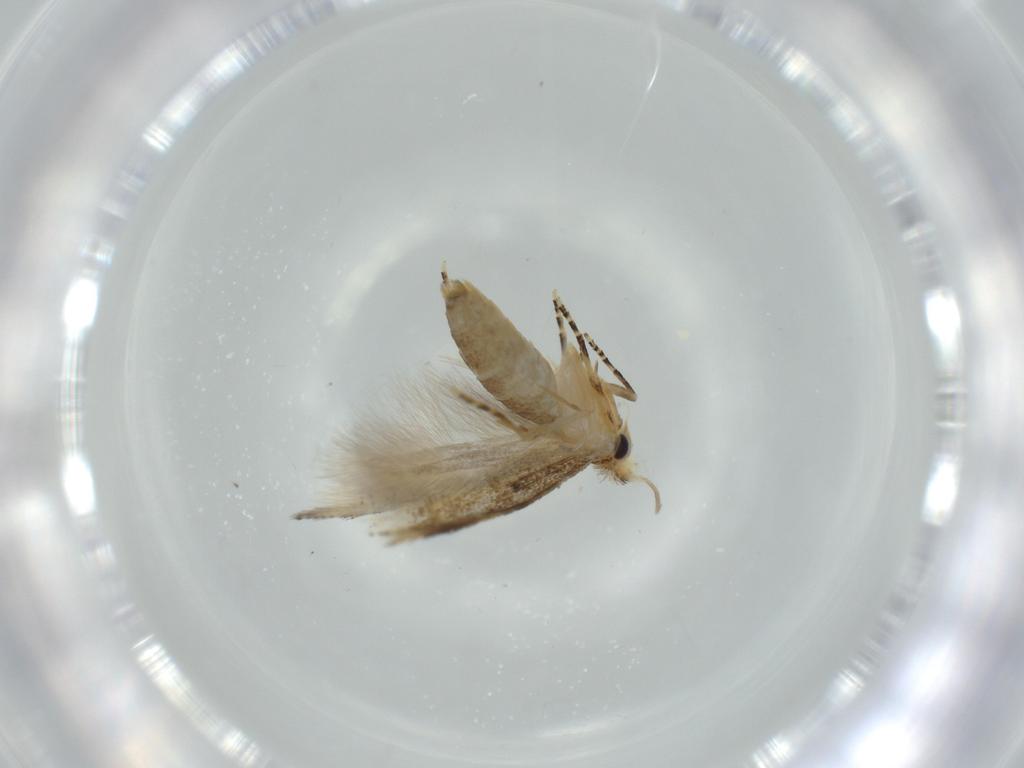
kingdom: Animalia
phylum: Arthropoda
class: Insecta
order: Lepidoptera
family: Bucculatricidae
